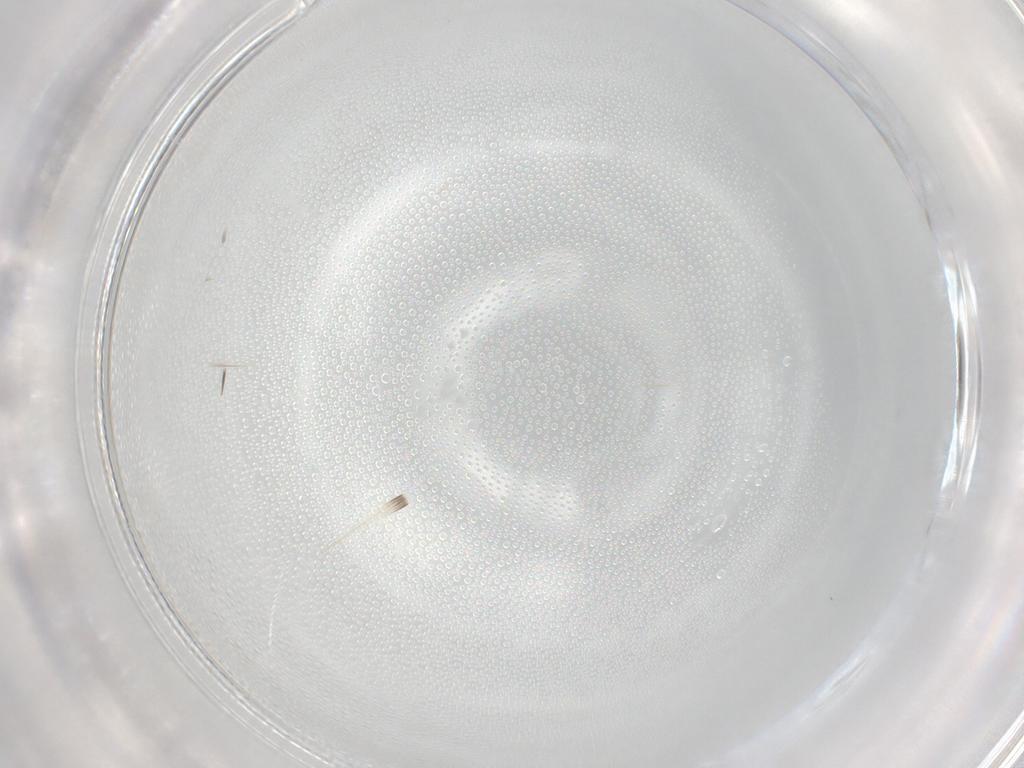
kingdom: Animalia
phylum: Arthropoda
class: Insecta
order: Hymenoptera
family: Mymaridae
